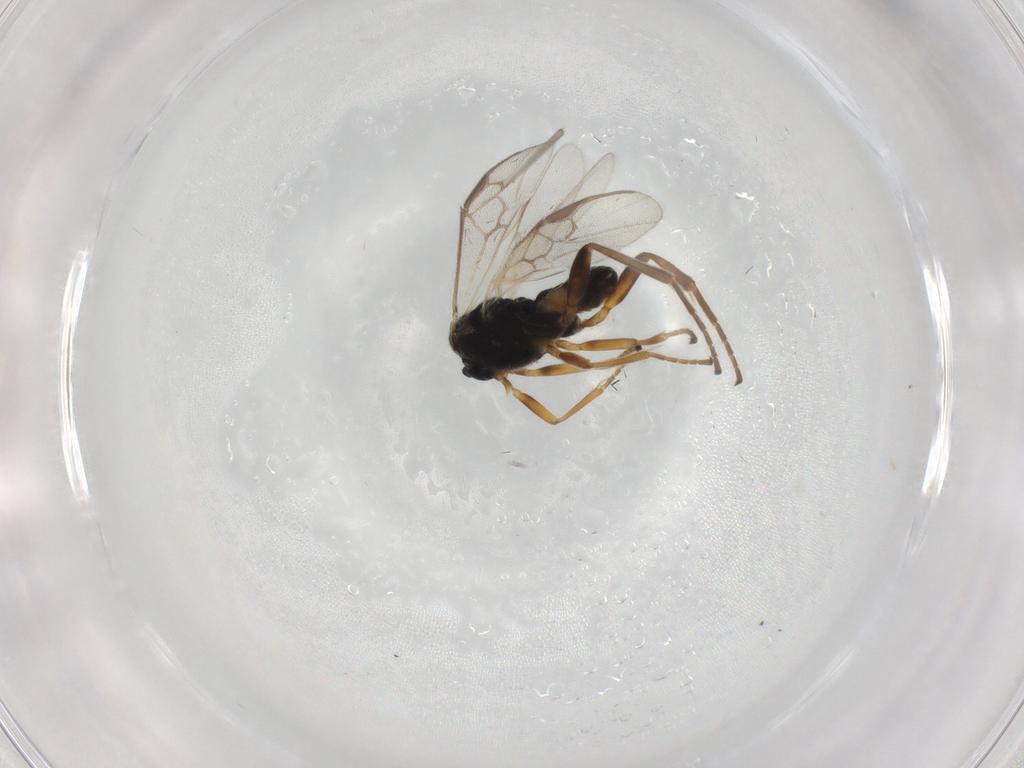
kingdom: Animalia
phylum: Arthropoda
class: Insecta
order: Hymenoptera
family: Braconidae
